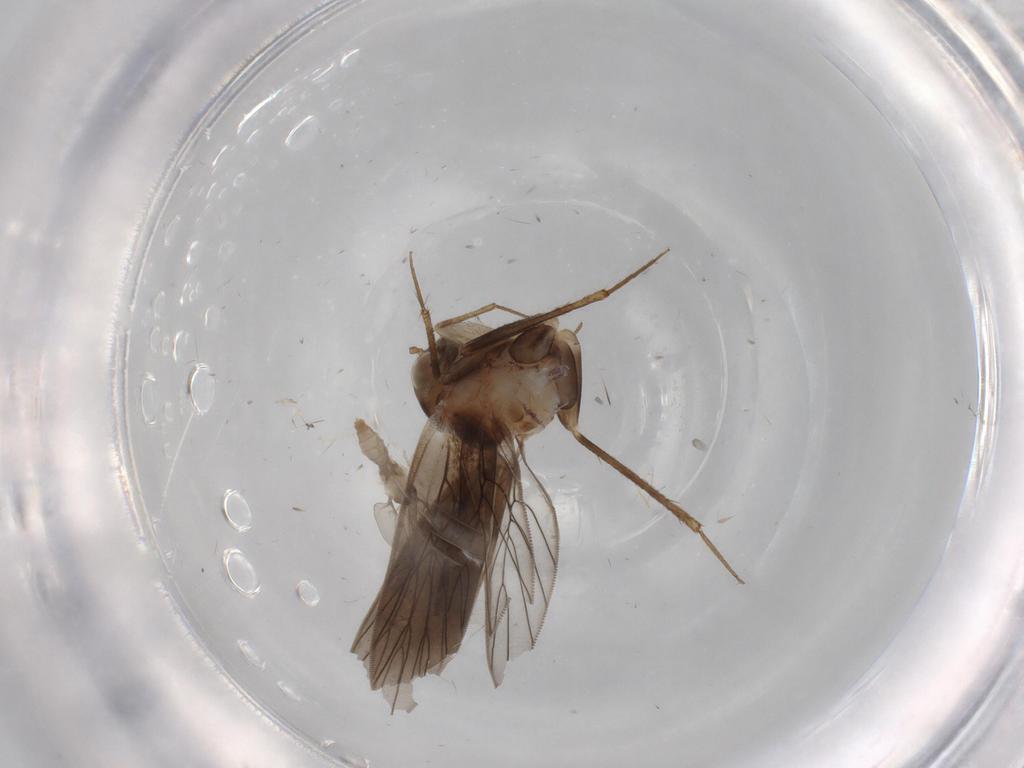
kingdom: Animalia
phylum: Arthropoda
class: Insecta
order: Psocodea
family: Lepidopsocidae
